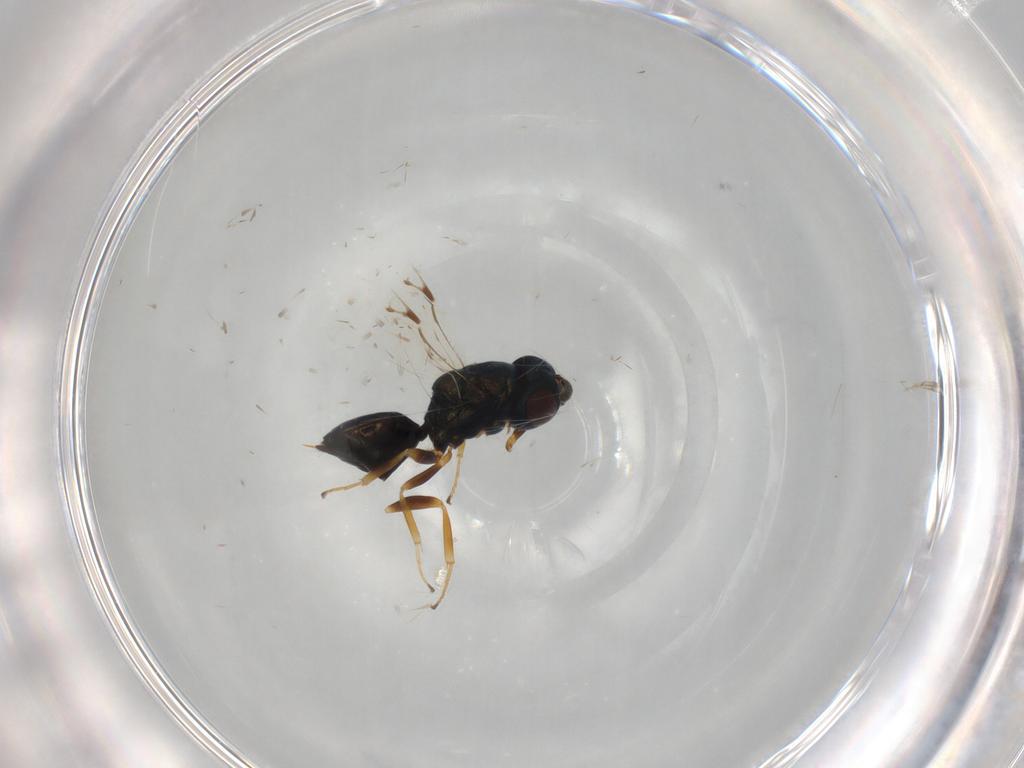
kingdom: Animalia
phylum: Arthropoda
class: Insecta
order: Hymenoptera
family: Pteromalidae
